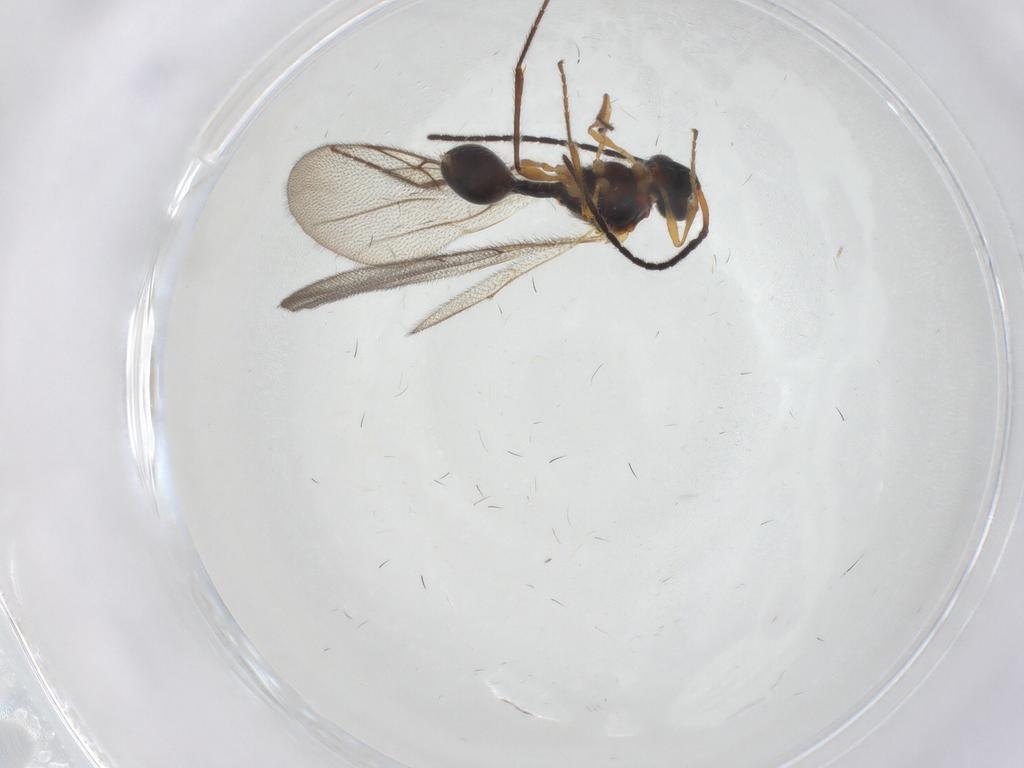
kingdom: Animalia
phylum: Arthropoda
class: Insecta
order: Hymenoptera
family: Diapriidae
